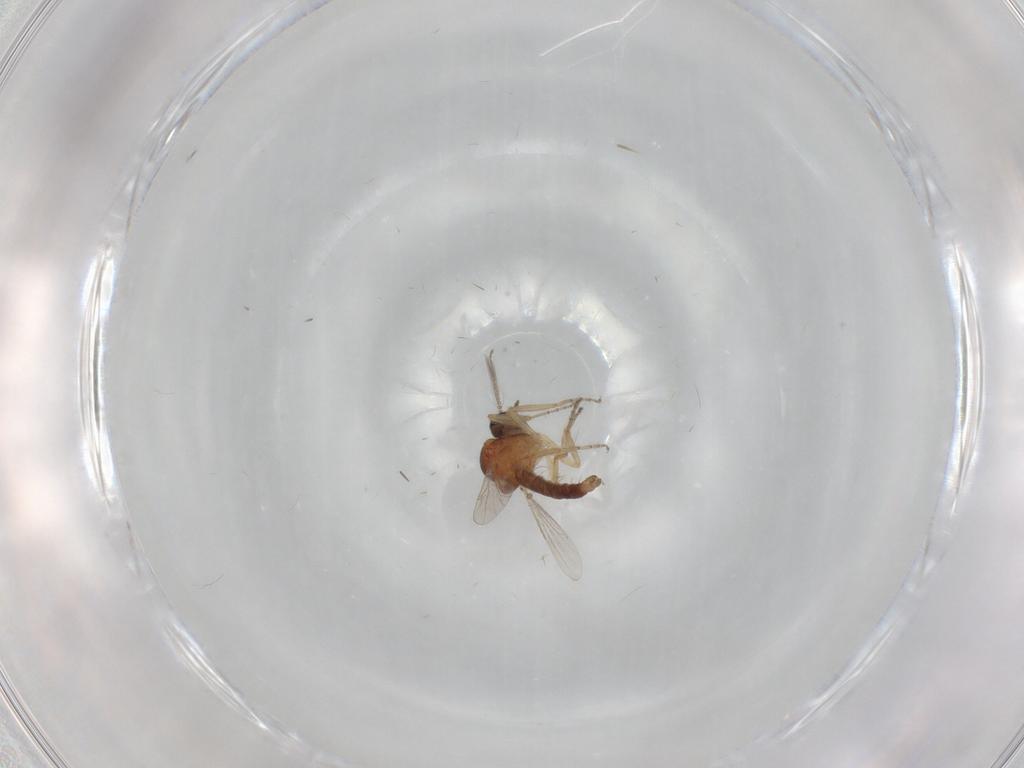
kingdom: Animalia
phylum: Arthropoda
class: Insecta
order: Diptera
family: Ceratopogonidae
